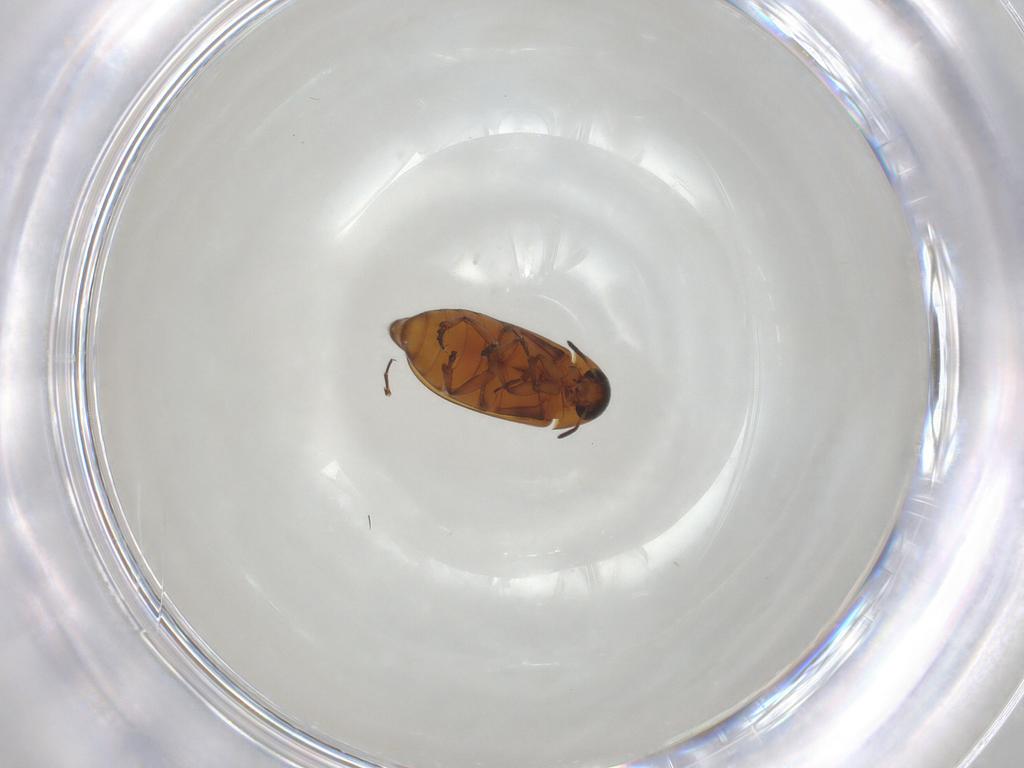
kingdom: Animalia
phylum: Arthropoda
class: Insecta
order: Coleoptera
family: Scraptiidae
